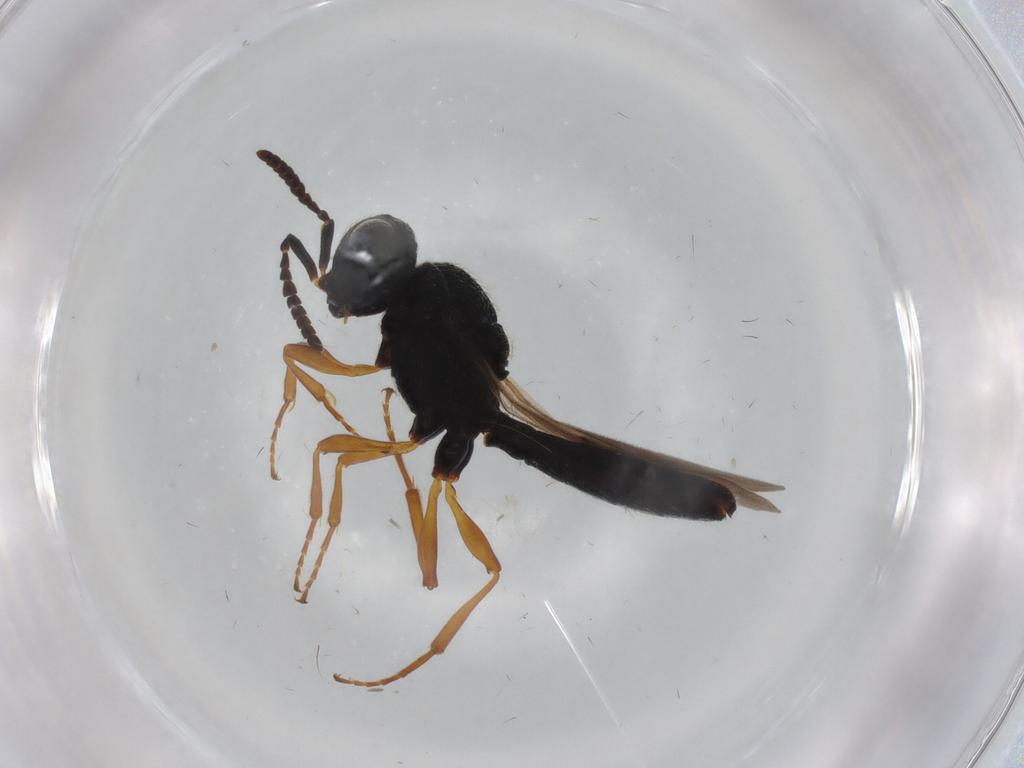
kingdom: Animalia
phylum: Arthropoda
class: Insecta
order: Hymenoptera
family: Scelionidae
